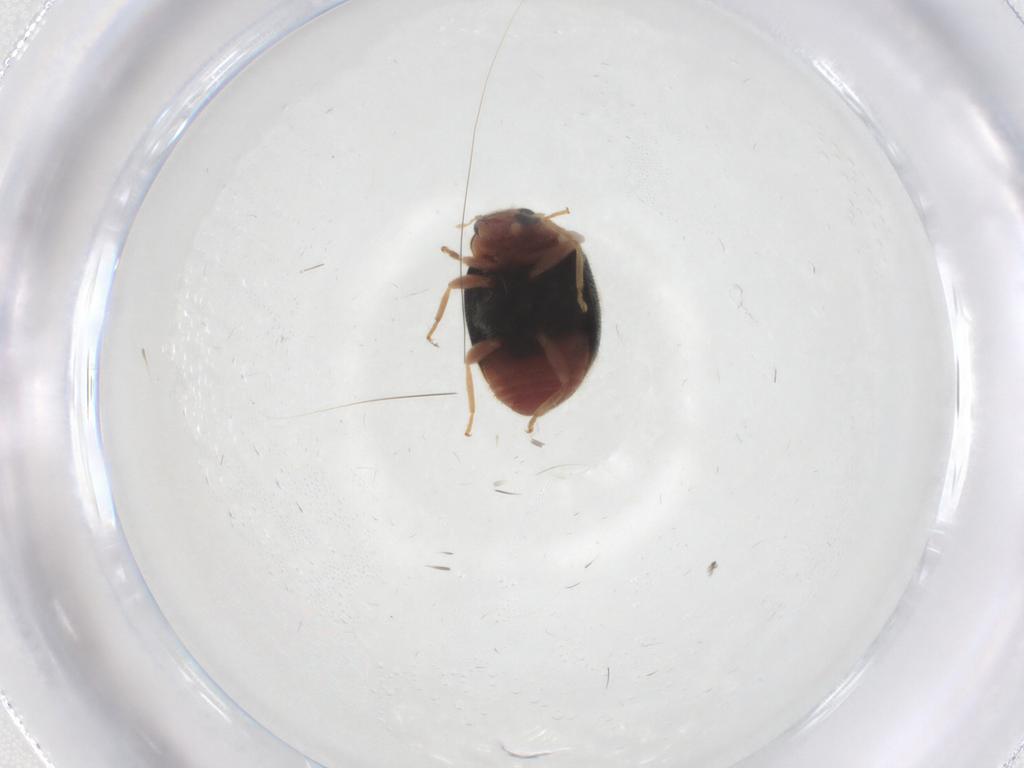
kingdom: Animalia
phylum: Arthropoda
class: Insecta
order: Coleoptera
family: Coccinellidae
